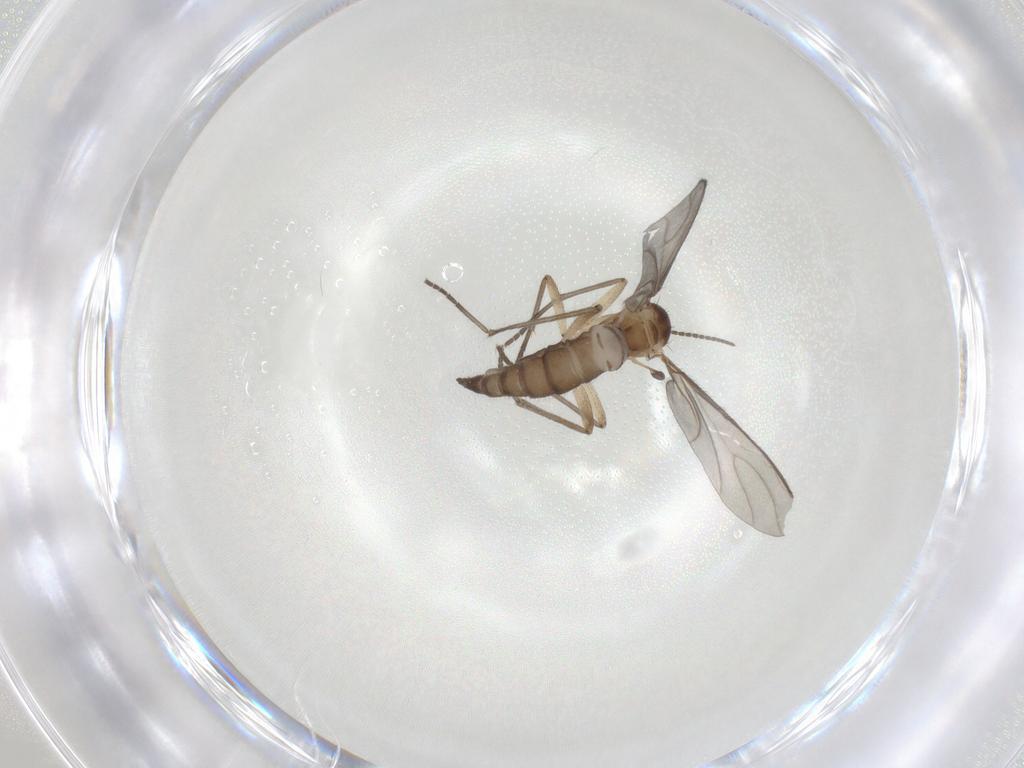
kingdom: Animalia
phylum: Arthropoda
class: Insecta
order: Diptera
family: Sciaridae
